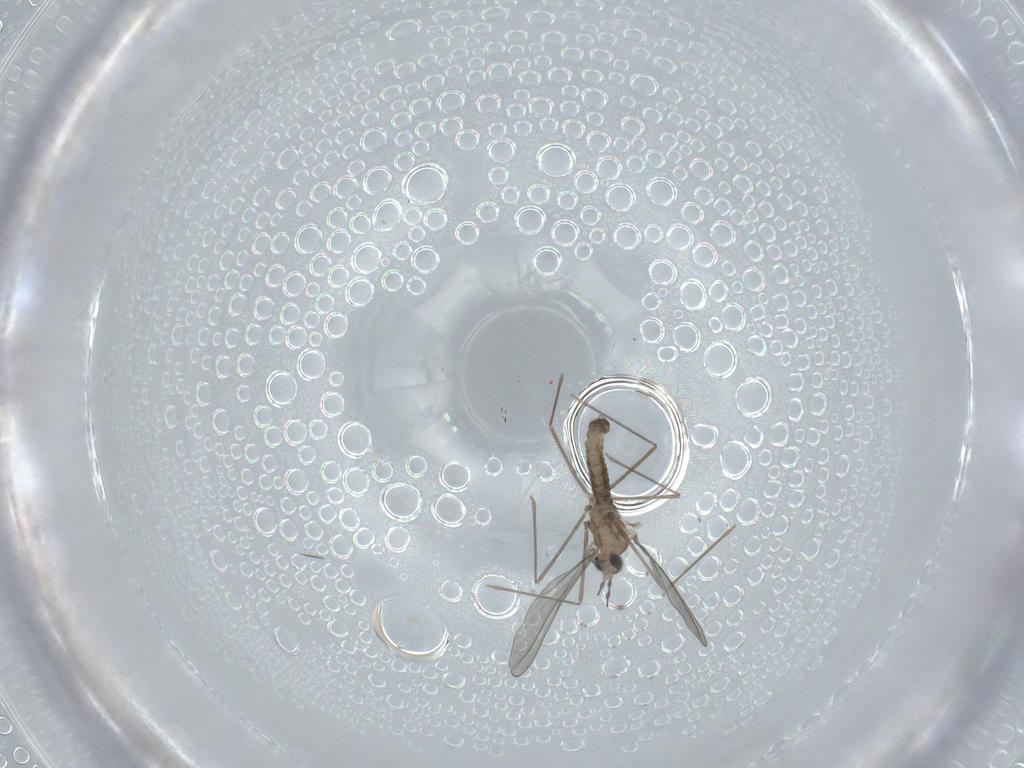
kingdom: Animalia
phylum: Arthropoda
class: Insecta
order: Diptera
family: Cecidomyiidae
